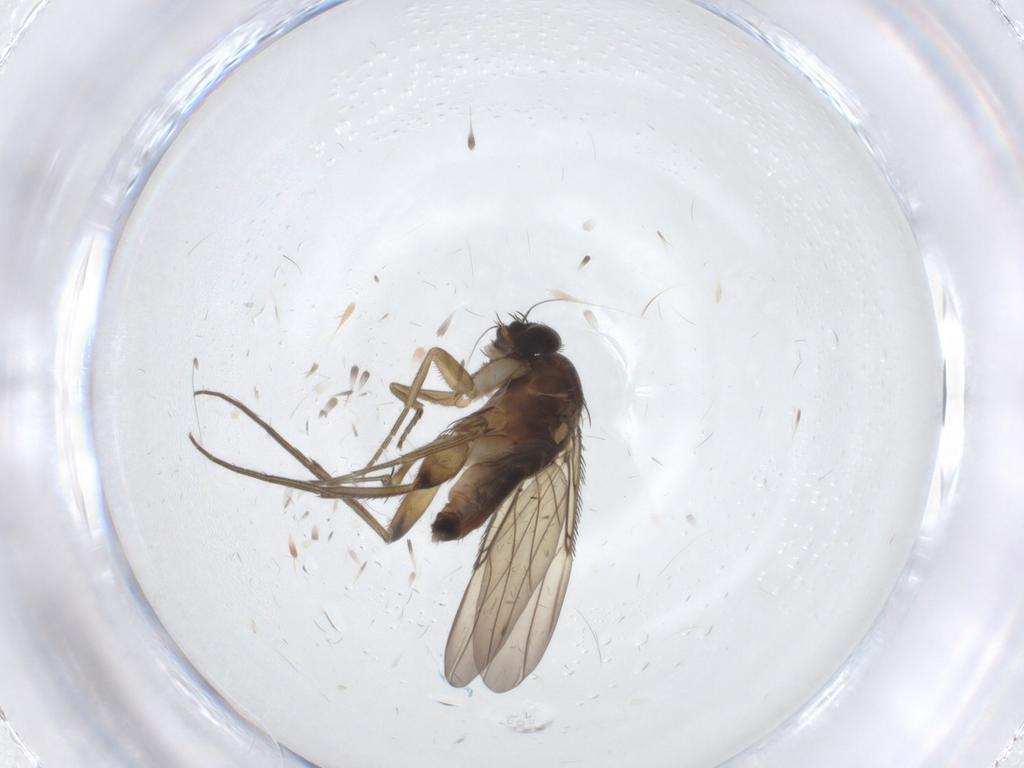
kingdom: Animalia
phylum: Arthropoda
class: Insecta
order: Diptera
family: Phoridae
